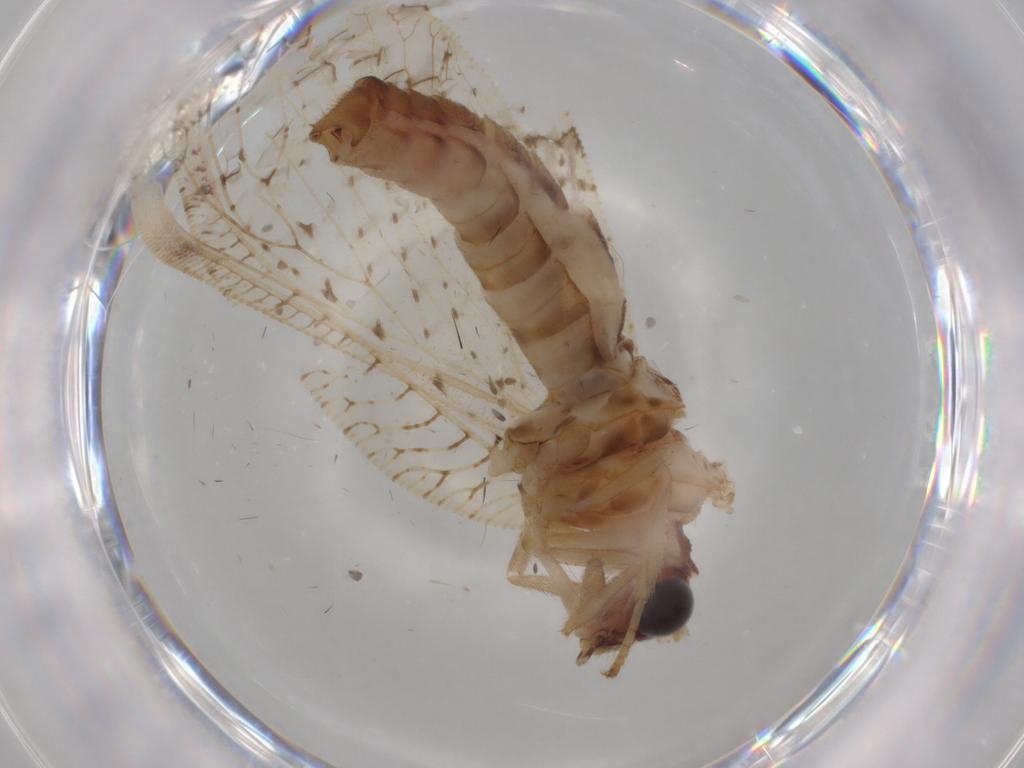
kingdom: Animalia
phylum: Arthropoda
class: Insecta
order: Neuroptera
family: Hemerobiidae
